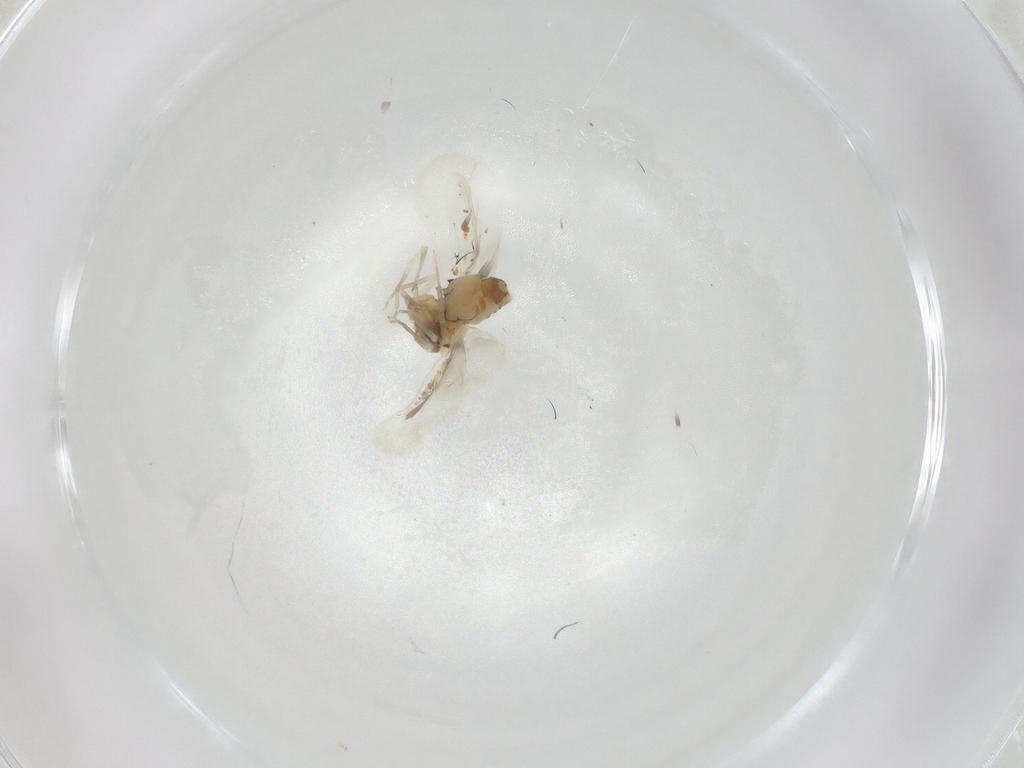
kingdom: Animalia
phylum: Arthropoda
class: Insecta
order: Hemiptera
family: Aleyrodidae
